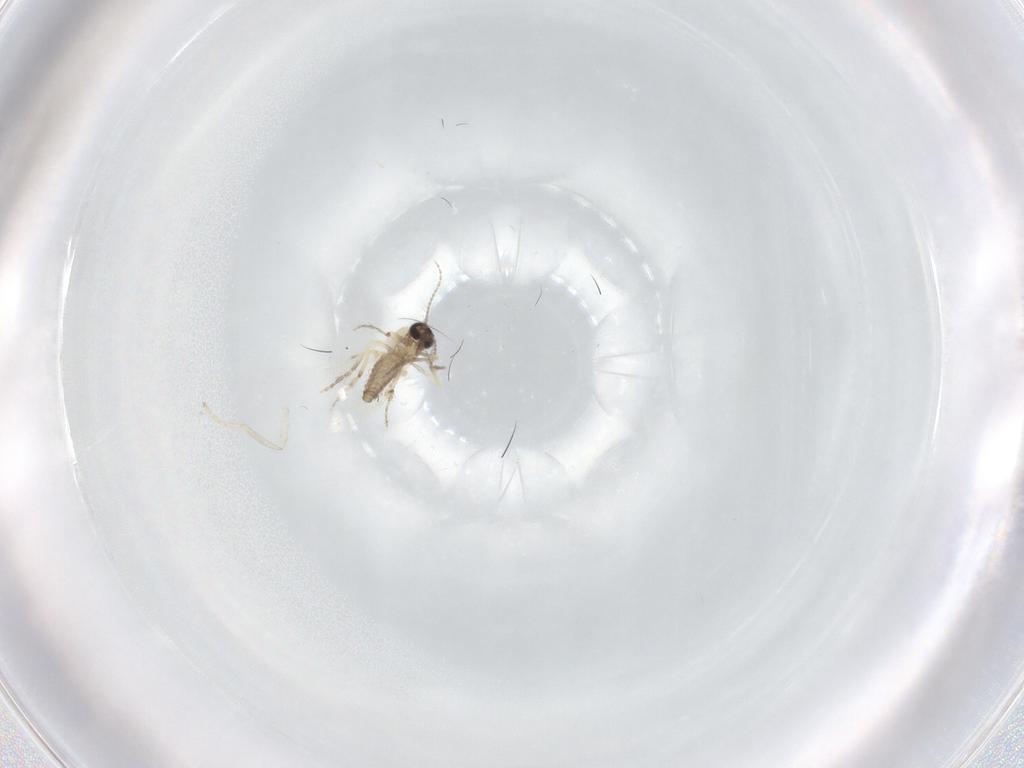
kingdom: Animalia
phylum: Arthropoda
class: Insecta
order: Diptera
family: Ceratopogonidae
